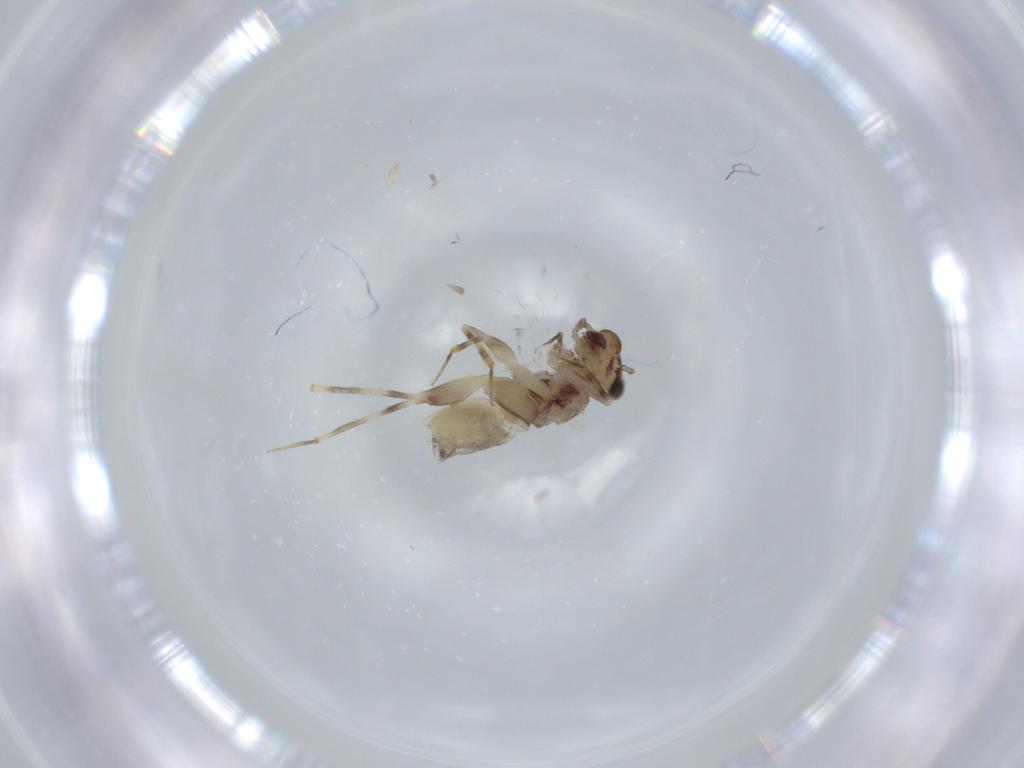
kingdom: Animalia
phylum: Arthropoda
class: Insecta
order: Psocodea
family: Lepidopsocidae
